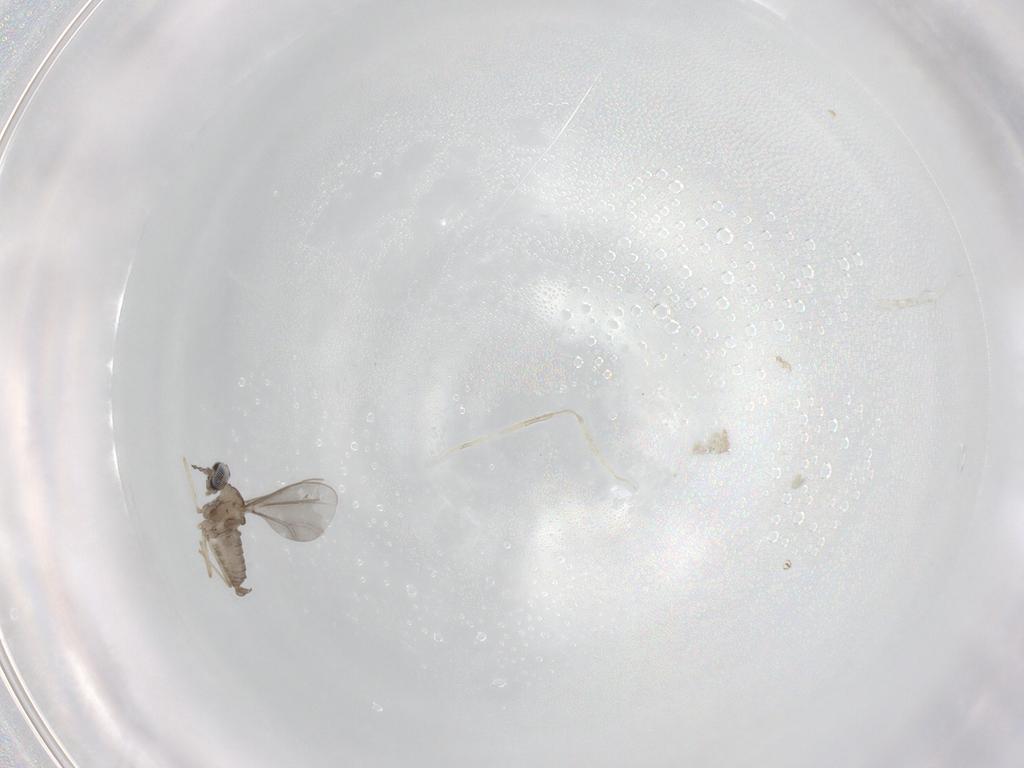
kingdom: Animalia
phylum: Arthropoda
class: Insecta
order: Diptera
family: Cecidomyiidae
